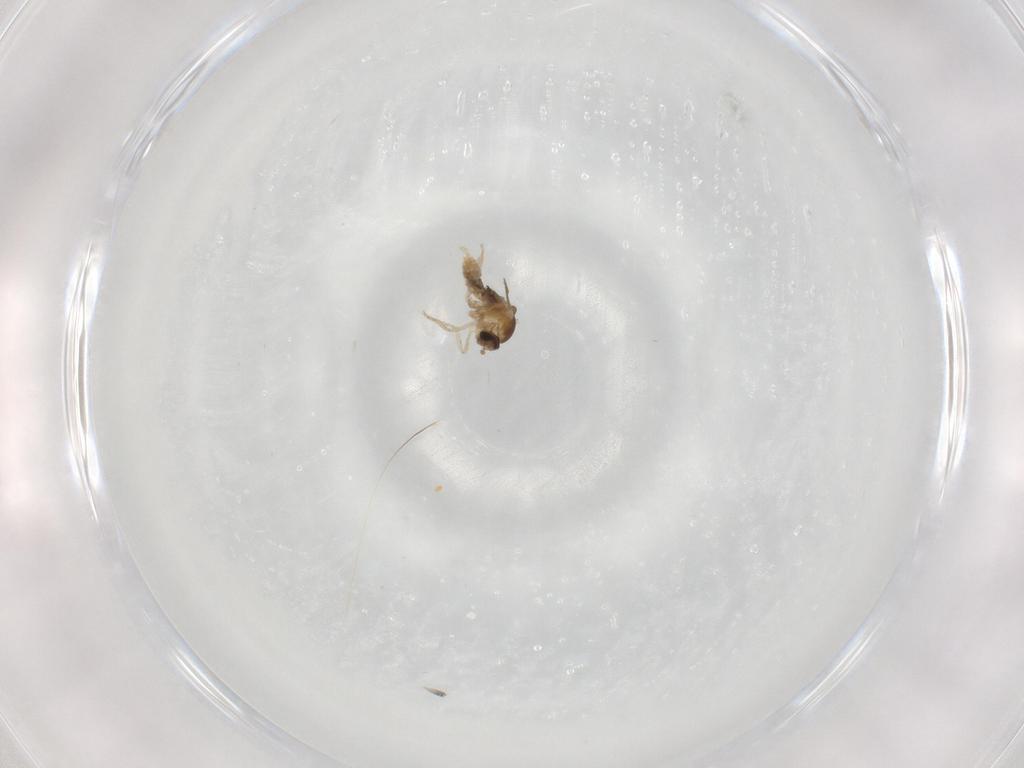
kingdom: Animalia
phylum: Arthropoda
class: Insecta
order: Diptera
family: Cecidomyiidae
